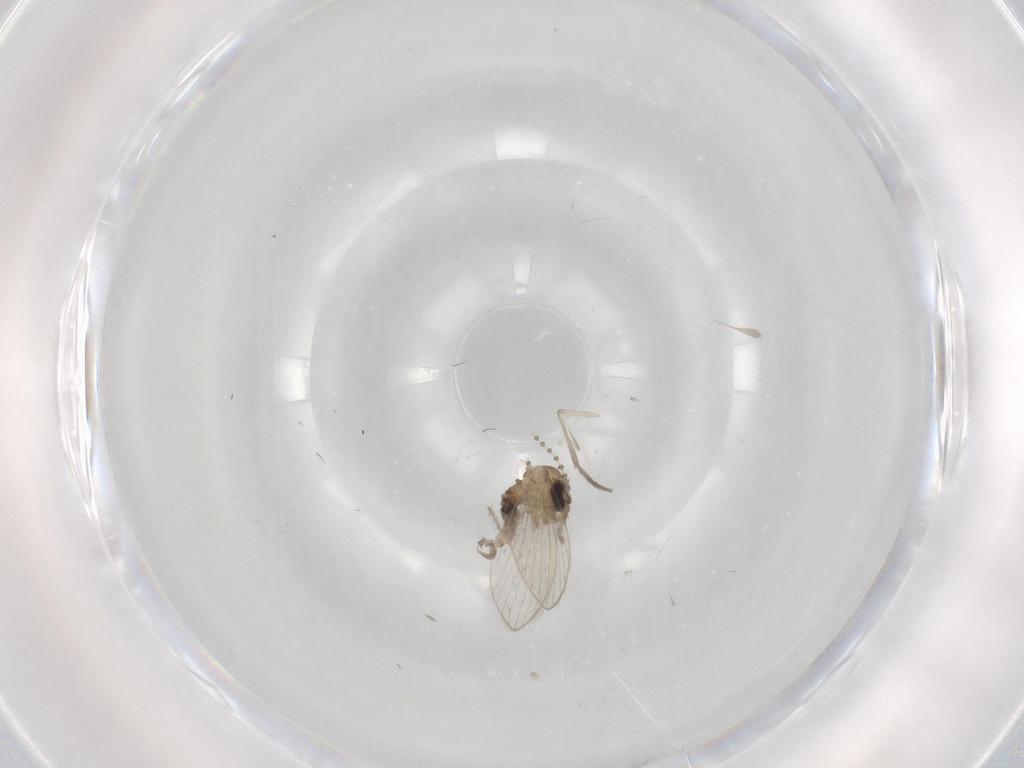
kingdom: Animalia
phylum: Arthropoda
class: Insecta
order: Diptera
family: Psychodidae
